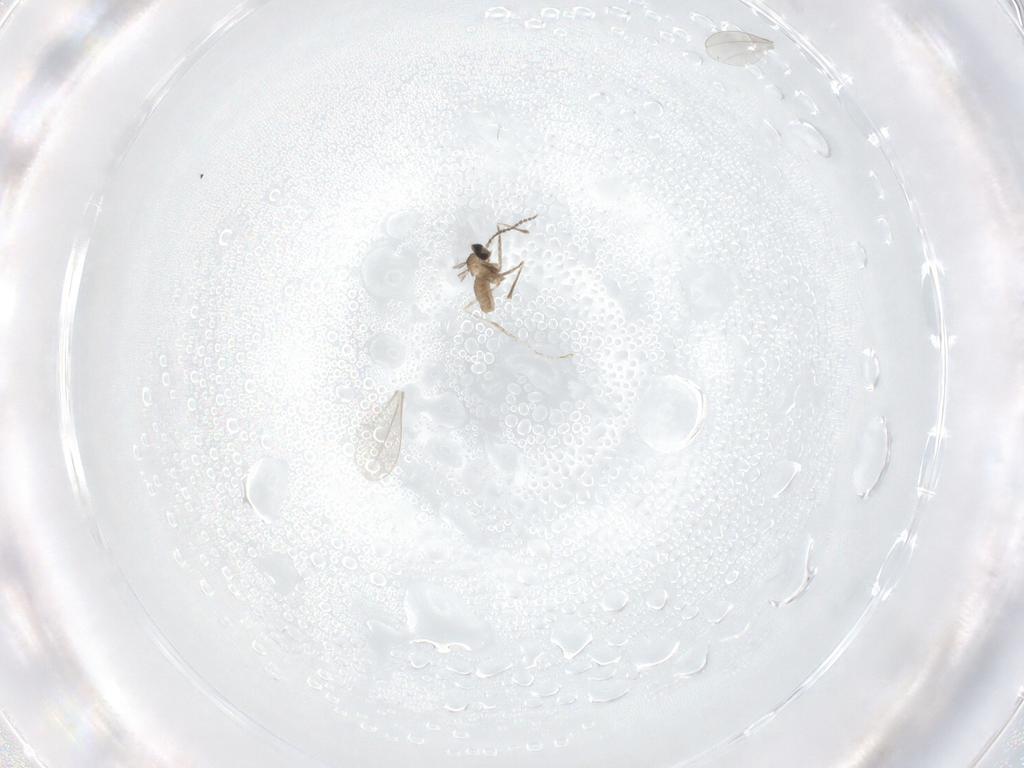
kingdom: Animalia
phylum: Arthropoda
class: Insecta
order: Diptera
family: Cecidomyiidae
